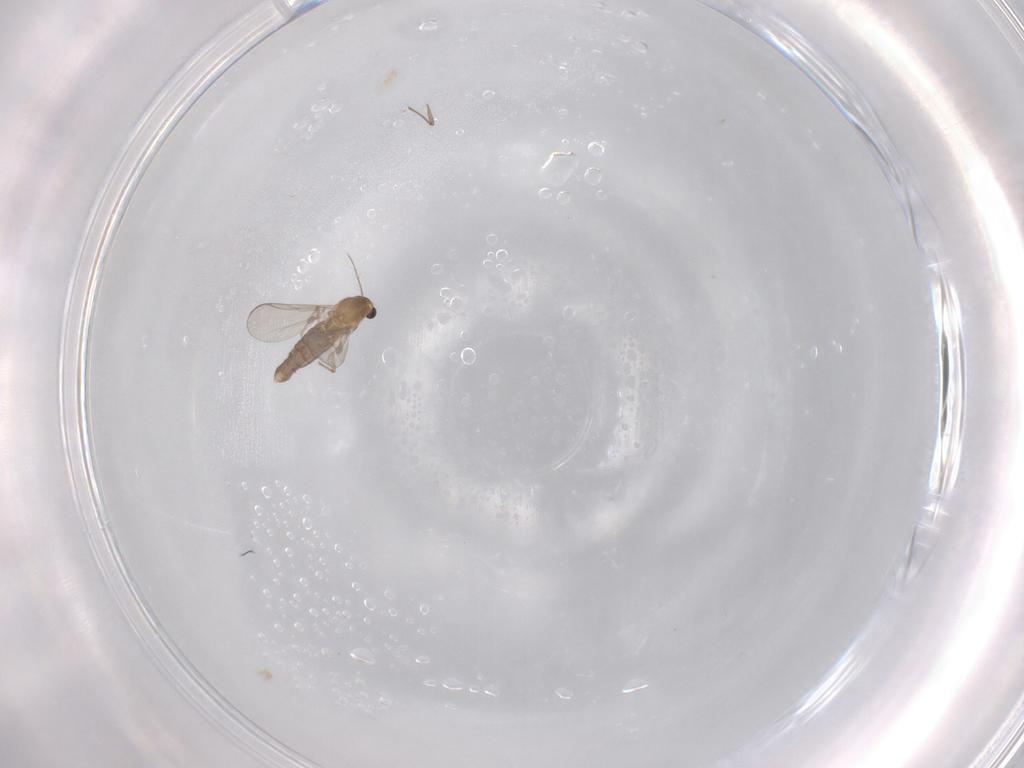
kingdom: Animalia
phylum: Arthropoda
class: Insecta
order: Diptera
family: Chironomidae
